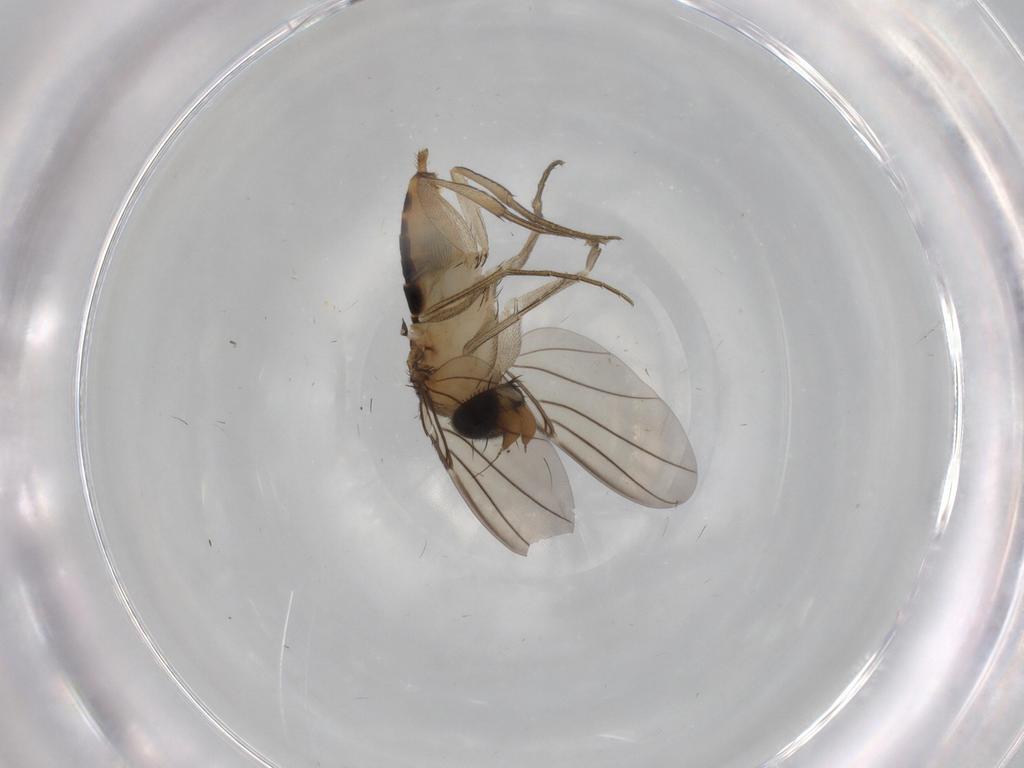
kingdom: Animalia
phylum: Arthropoda
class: Insecta
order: Diptera
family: Phoridae
